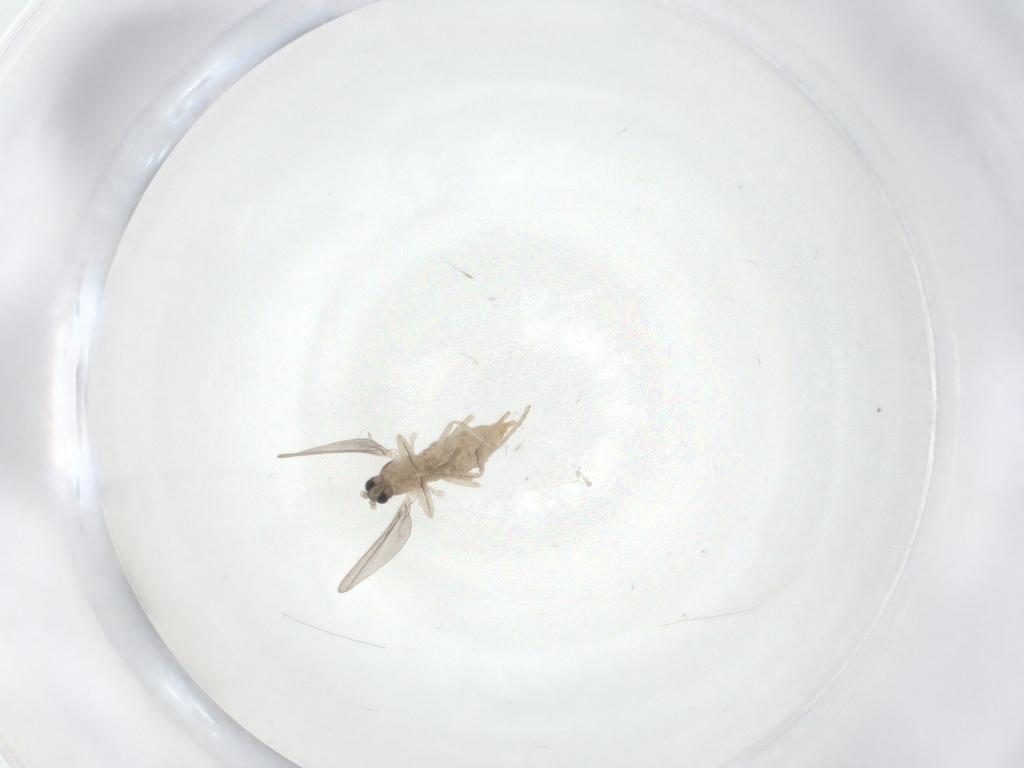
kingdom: Animalia
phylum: Arthropoda
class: Insecta
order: Diptera
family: Cecidomyiidae
